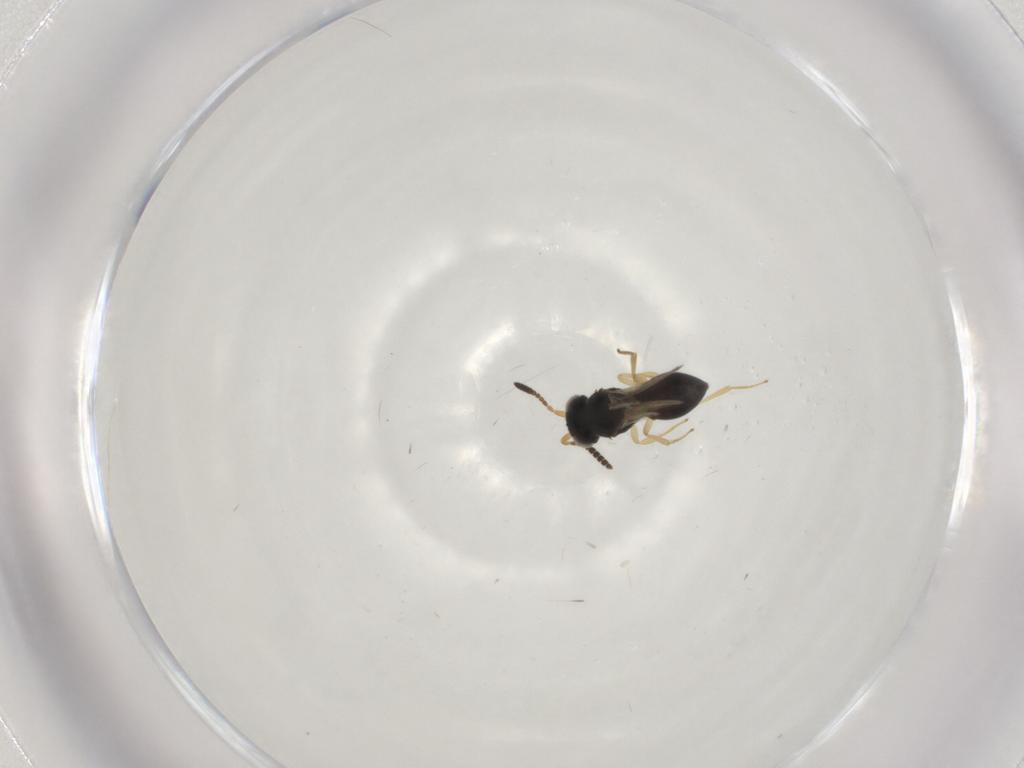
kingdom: Animalia
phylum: Arthropoda
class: Insecta
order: Hymenoptera
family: Scelionidae
